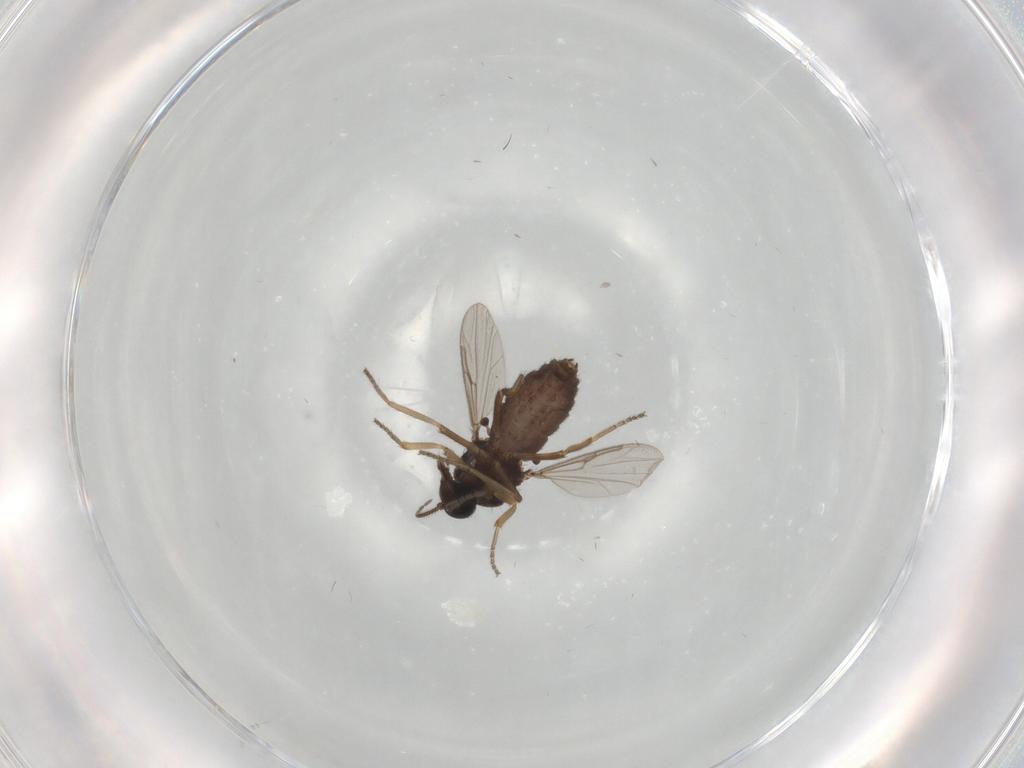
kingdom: Animalia
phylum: Arthropoda
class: Insecta
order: Diptera
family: Ceratopogonidae
